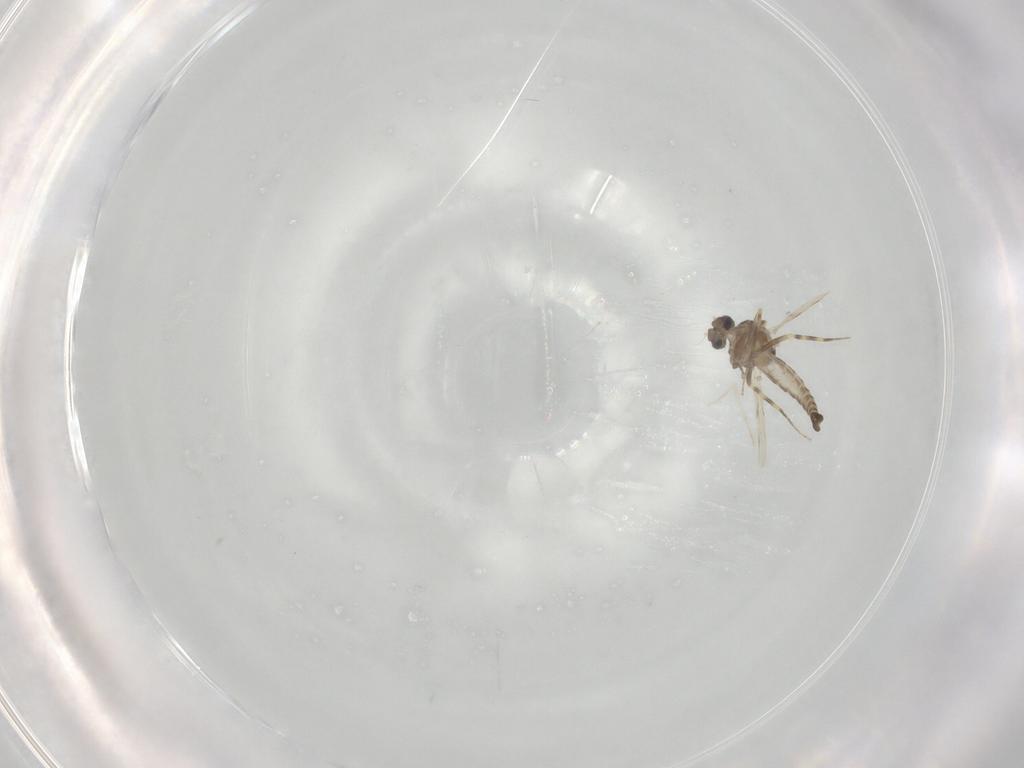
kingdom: Animalia
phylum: Arthropoda
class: Insecta
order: Diptera
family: Ceratopogonidae
